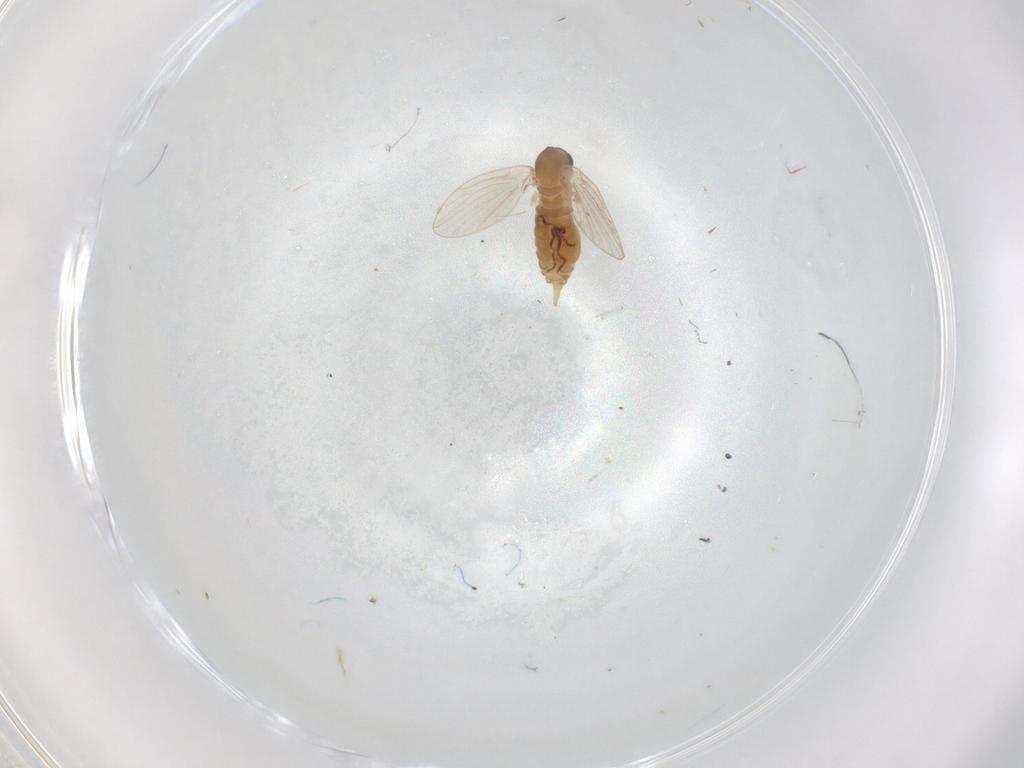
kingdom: Animalia
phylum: Arthropoda
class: Insecta
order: Diptera
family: Psychodidae
